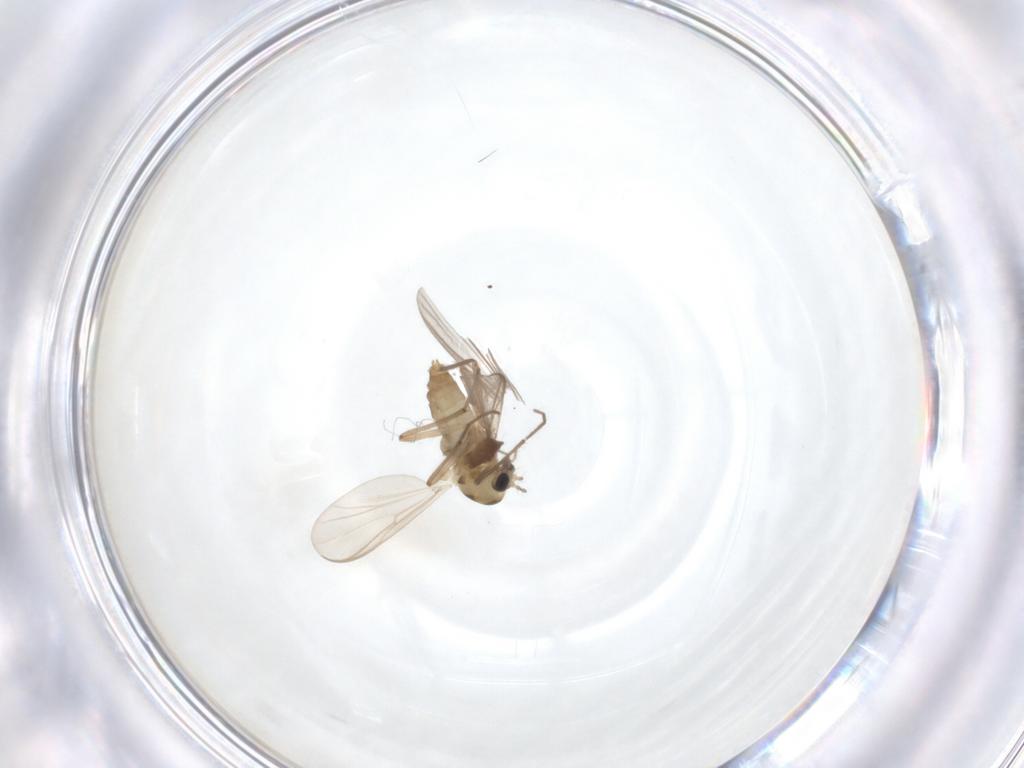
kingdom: Animalia
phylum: Arthropoda
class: Insecta
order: Diptera
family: Chironomidae
